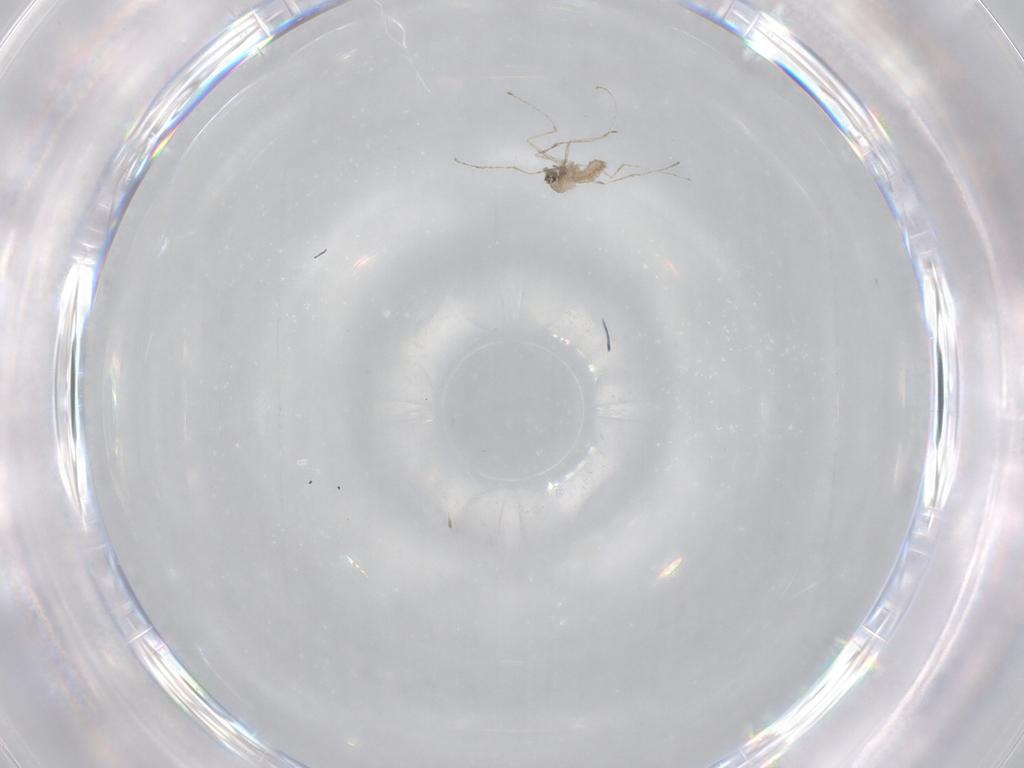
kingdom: Animalia
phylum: Arthropoda
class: Insecta
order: Diptera
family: Cecidomyiidae
